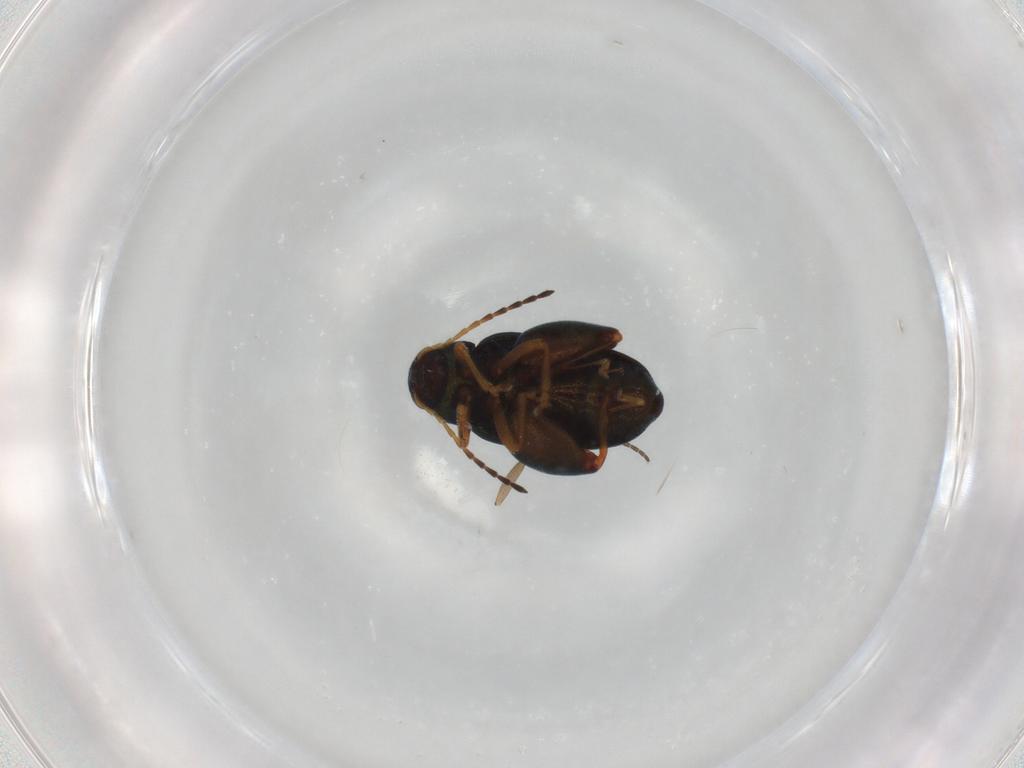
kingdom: Animalia
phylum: Arthropoda
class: Insecta
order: Coleoptera
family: Chrysomelidae
